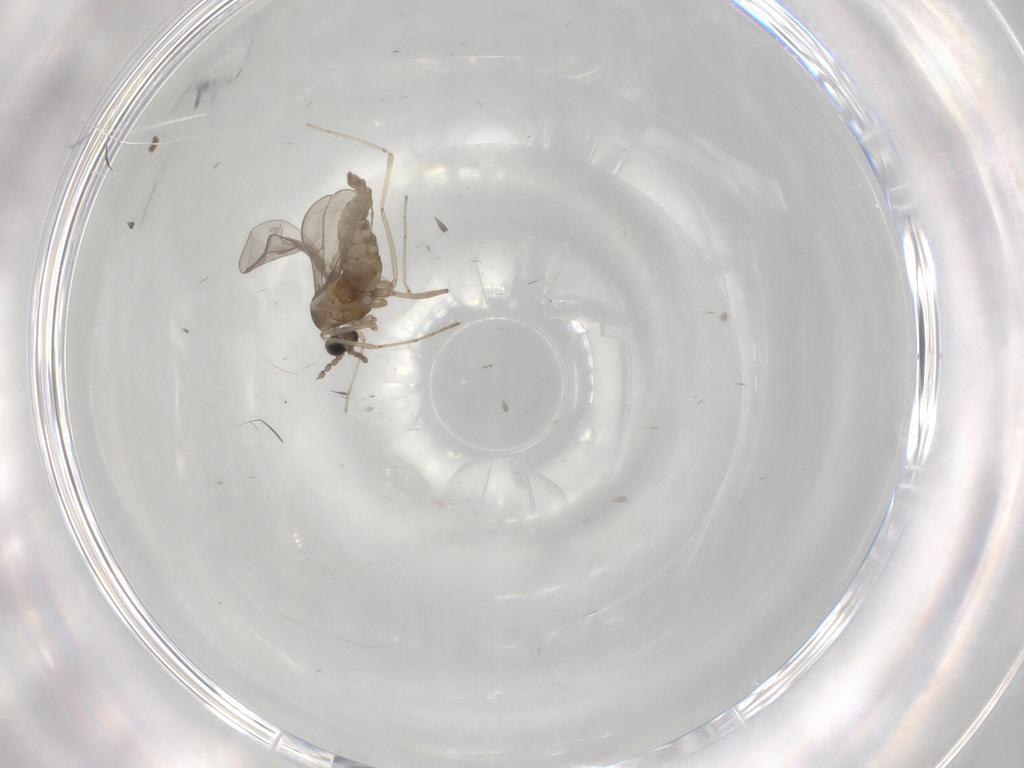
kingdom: Animalia
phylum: Arthropoda
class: Insecta
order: Diptera
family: Cecidomyiidae
